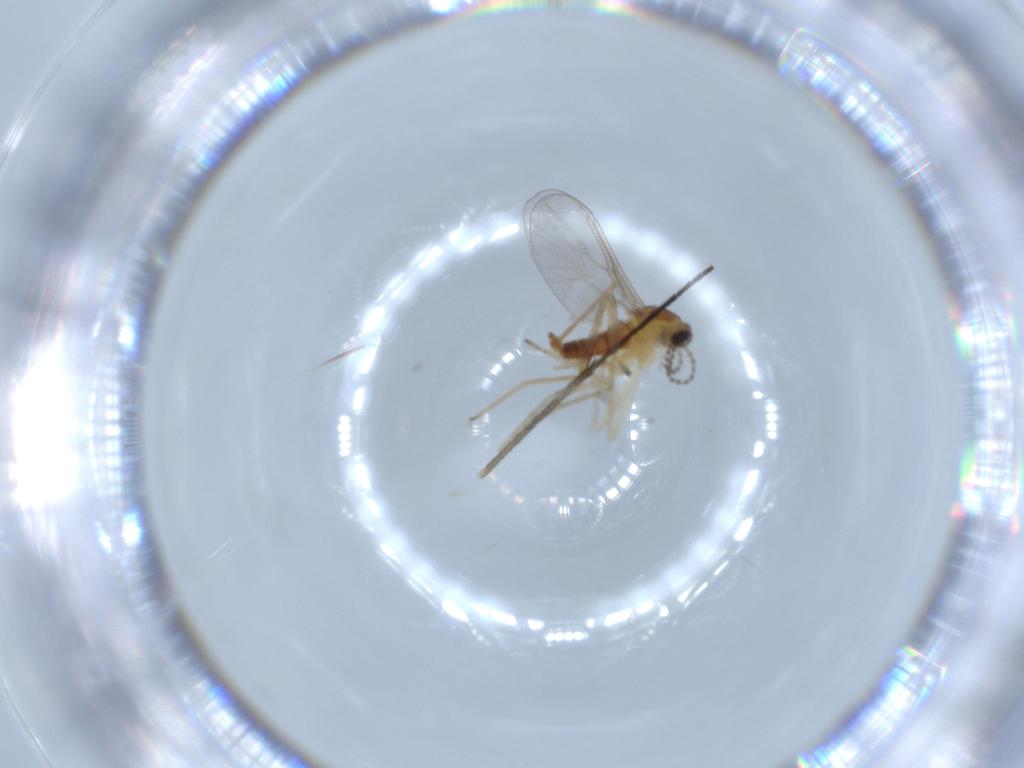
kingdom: Animalia
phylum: Arthropoda
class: Insecta
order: Diptera
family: Cecidomyiidae
